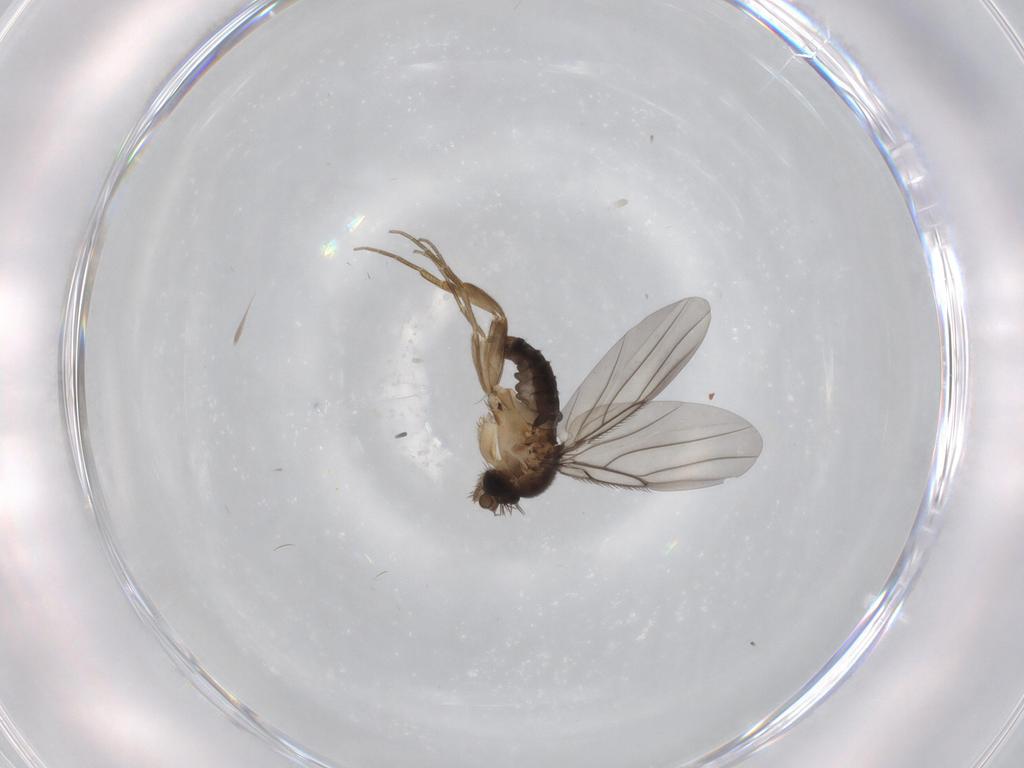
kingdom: Animalia
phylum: Arthropoda
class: Insecta
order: Diptera
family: Phoridae
